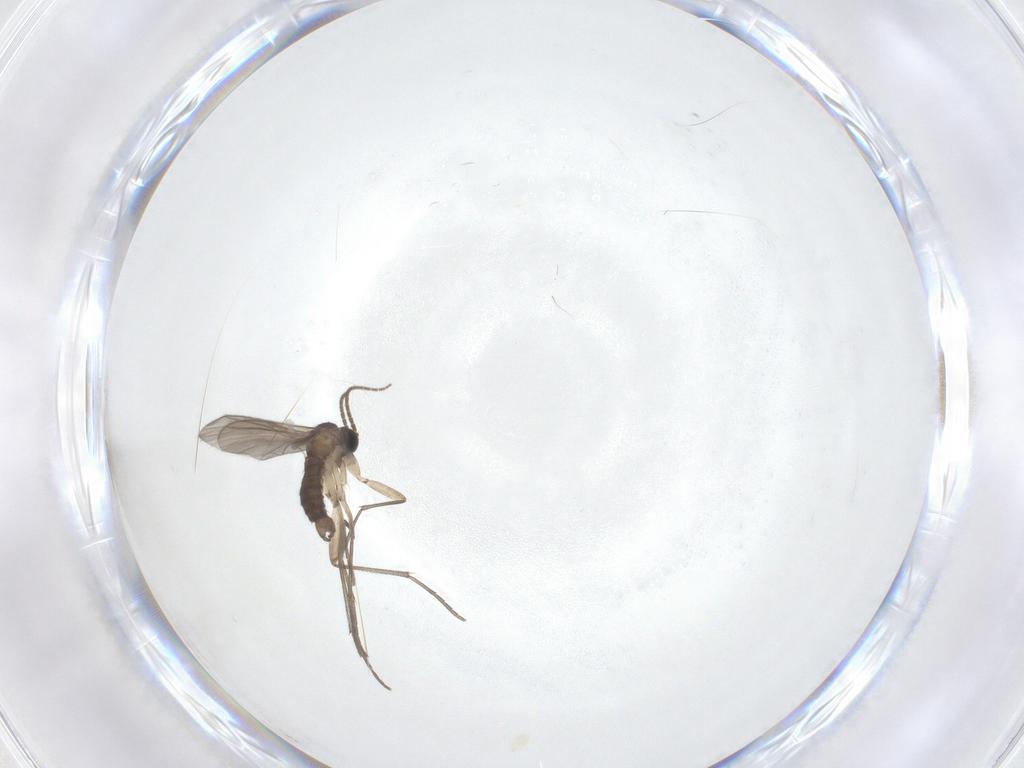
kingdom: Animalia
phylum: Arthropoda
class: Insecta
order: Diptera
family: Sciaridae
